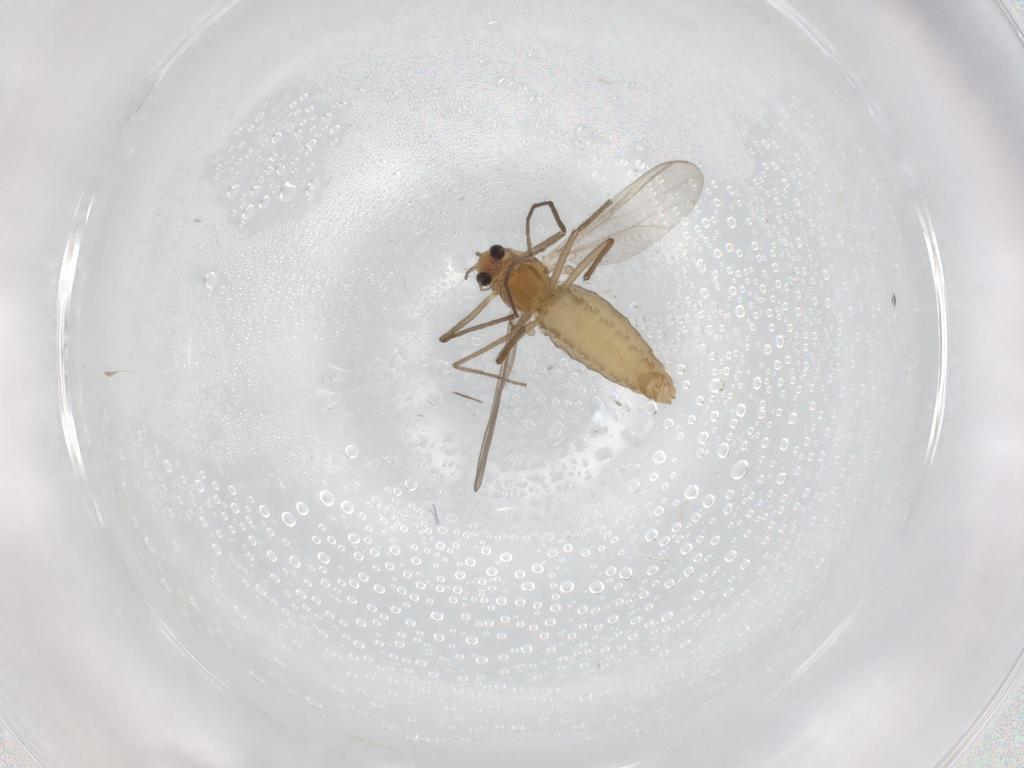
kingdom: Animalia
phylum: Arthropoda
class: Insecta
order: Diptera
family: Chironomidae
